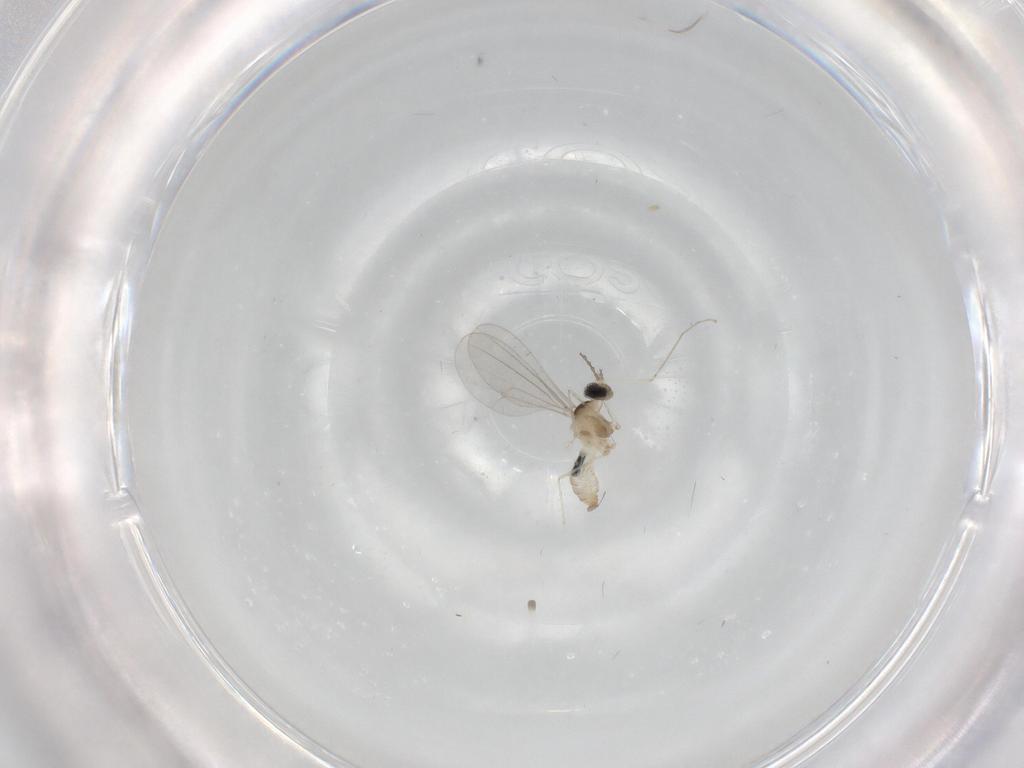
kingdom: Animalia
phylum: Arthropoda
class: Insecta
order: Diptera
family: Cecidomyiidae
